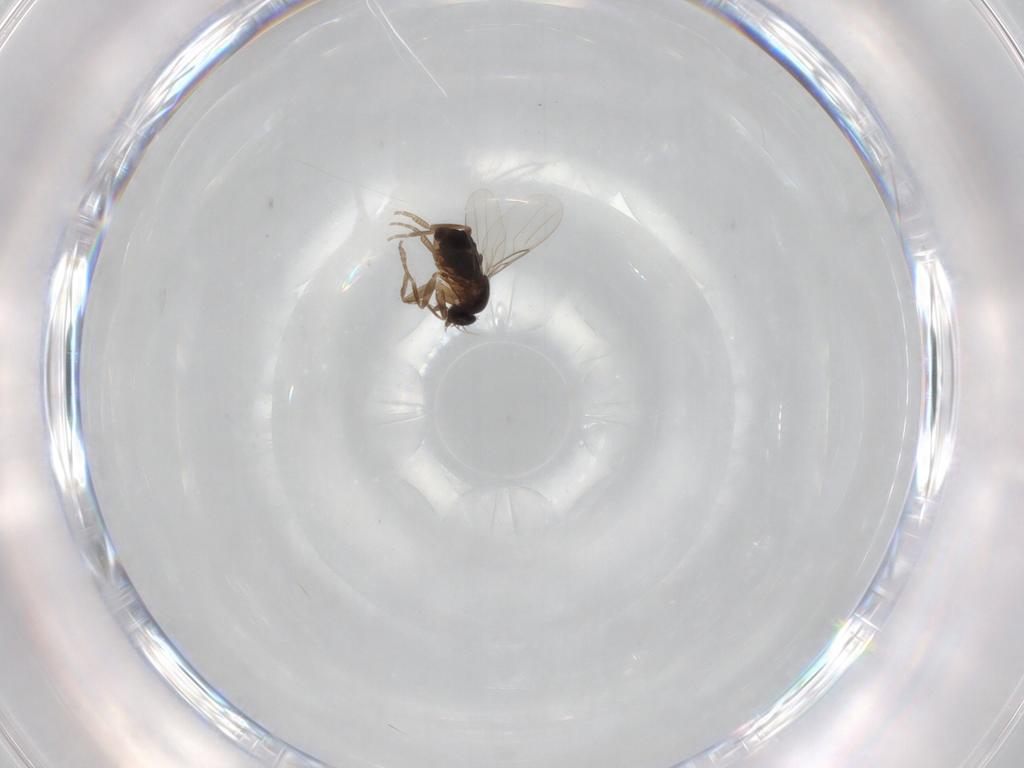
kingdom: Animalia
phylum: Arthropoda
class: Insecta
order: Diptera
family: Phoridae
